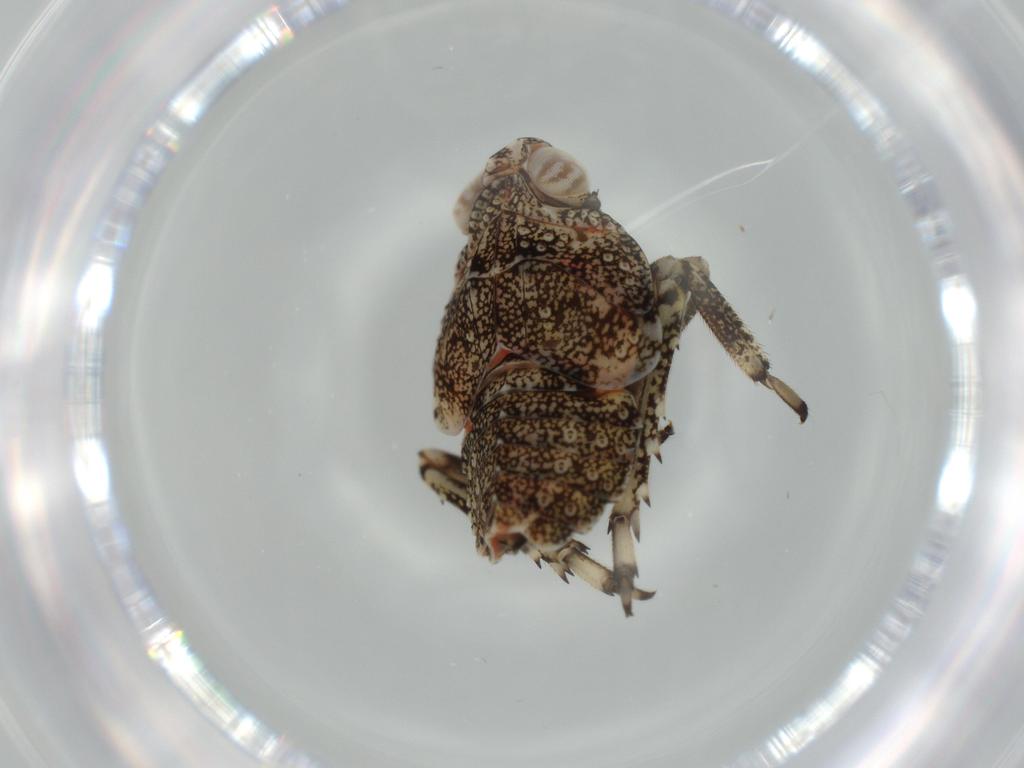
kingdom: Animalia
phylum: Arthropoda
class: Insecta
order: Hemiptera
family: Issidae
